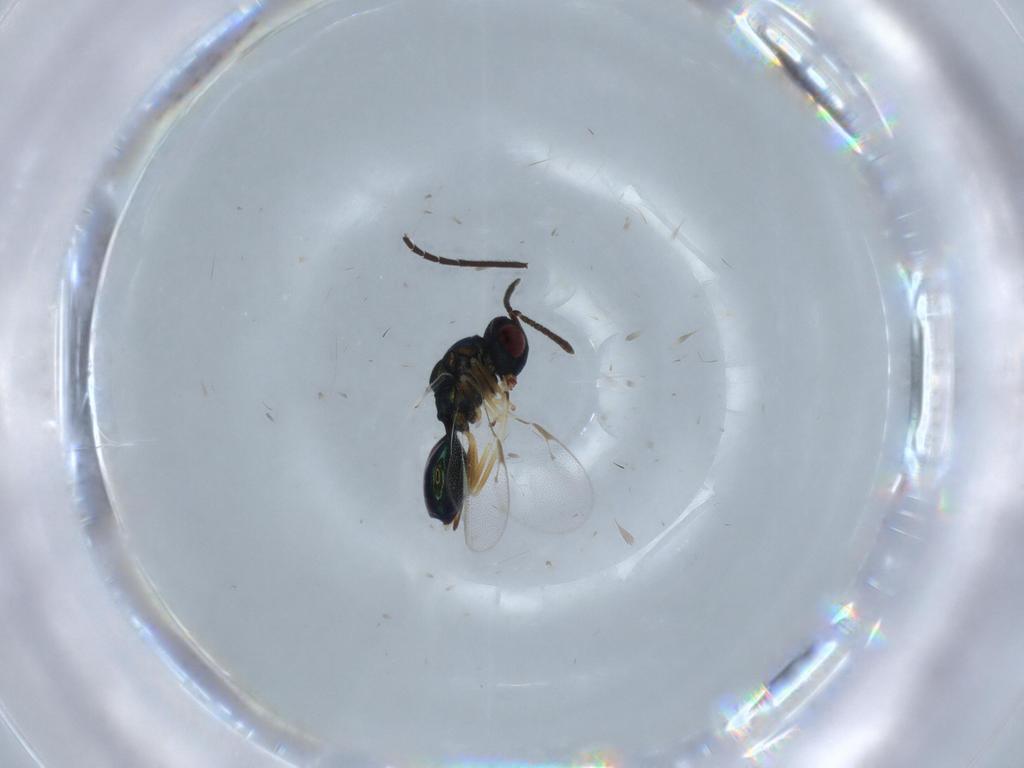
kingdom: Animalia
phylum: Arthropoda
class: Insecta
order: Hymenoptera
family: Pteromalidae
